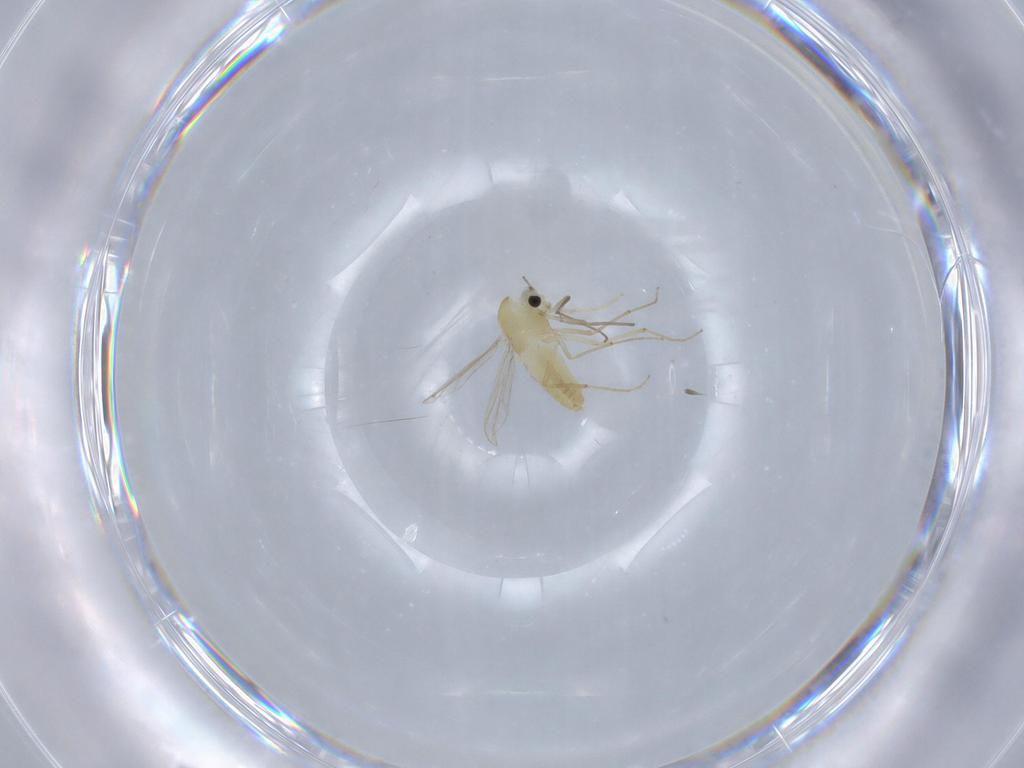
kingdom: Animalia
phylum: Arthropoda
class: Insecta
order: Diptera
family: Chironomidae
